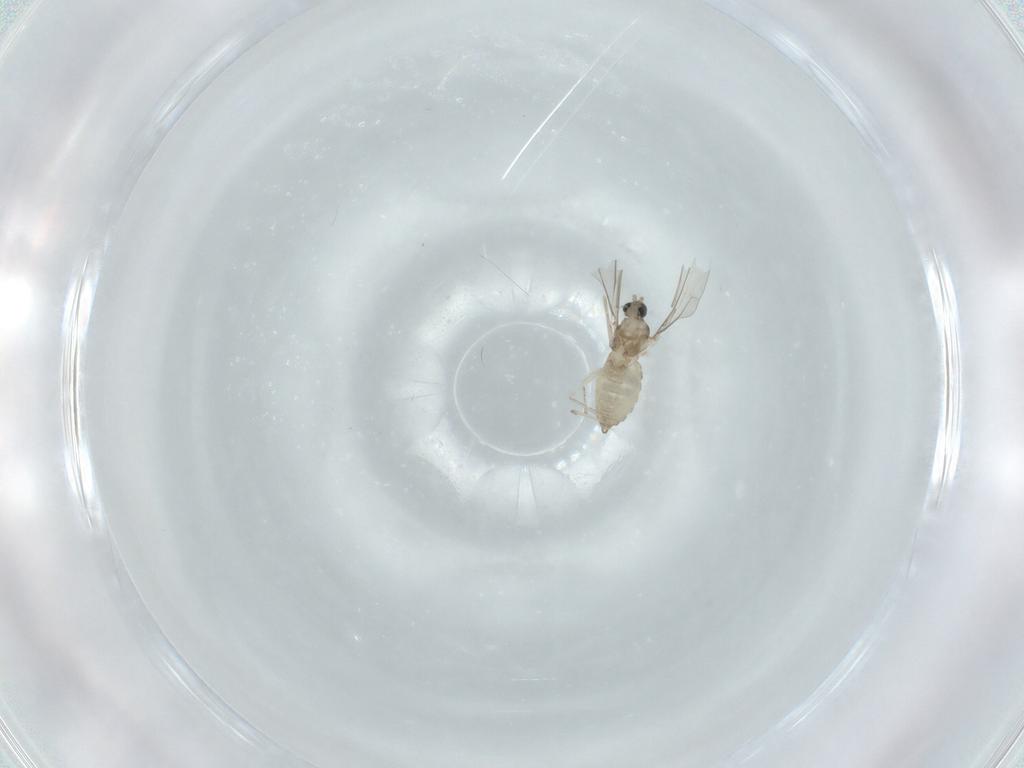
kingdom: Animalia
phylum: Arthropoda
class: Insecta
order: Diptera
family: Cecidomyiidae
